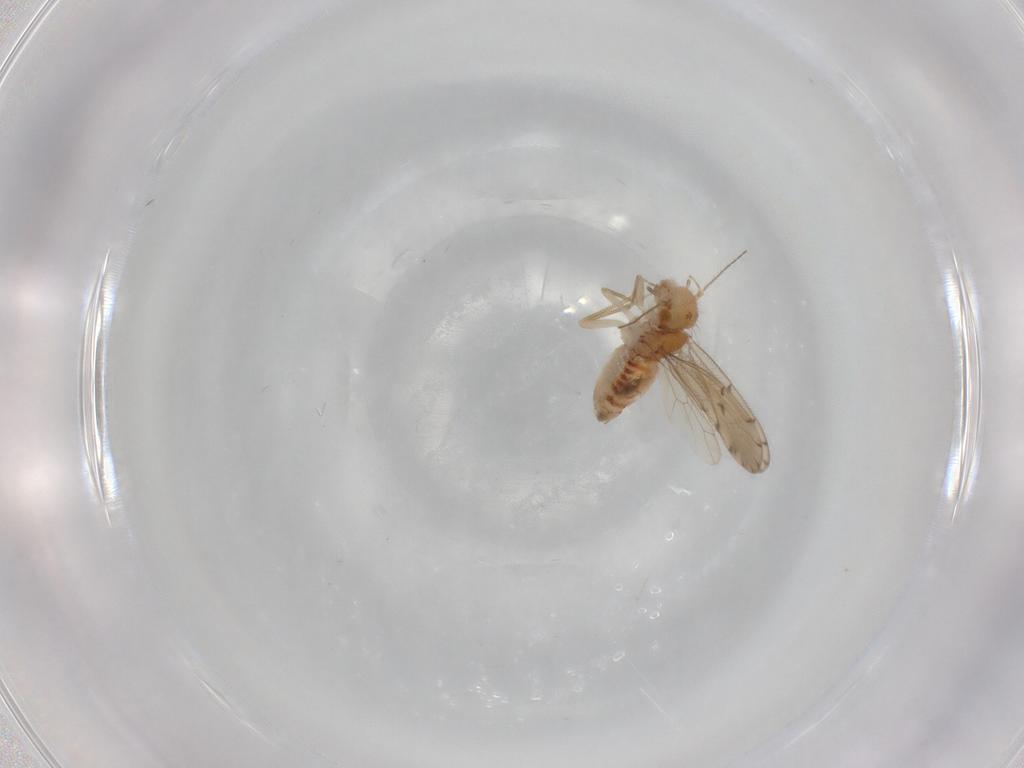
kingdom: Animalia
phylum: Arthropoda
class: Insecta
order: Psocodea
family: Ectopsocidae
